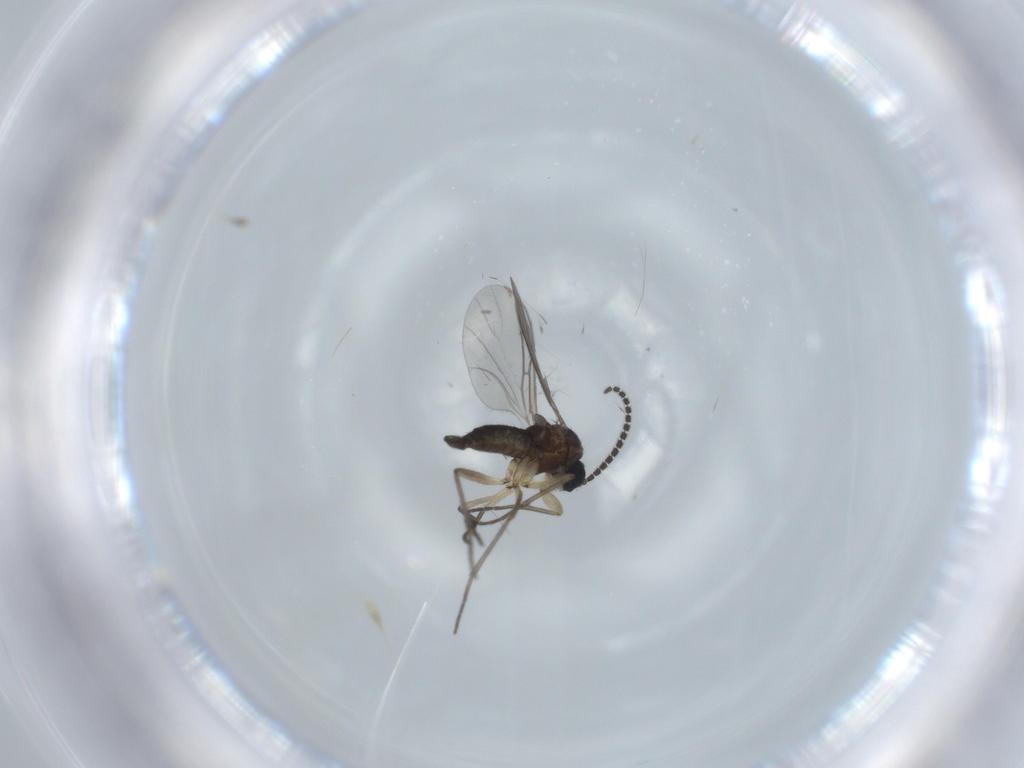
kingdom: Animalia
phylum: Arthropoda
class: Insecta
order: Diptera
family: Sciaridae
